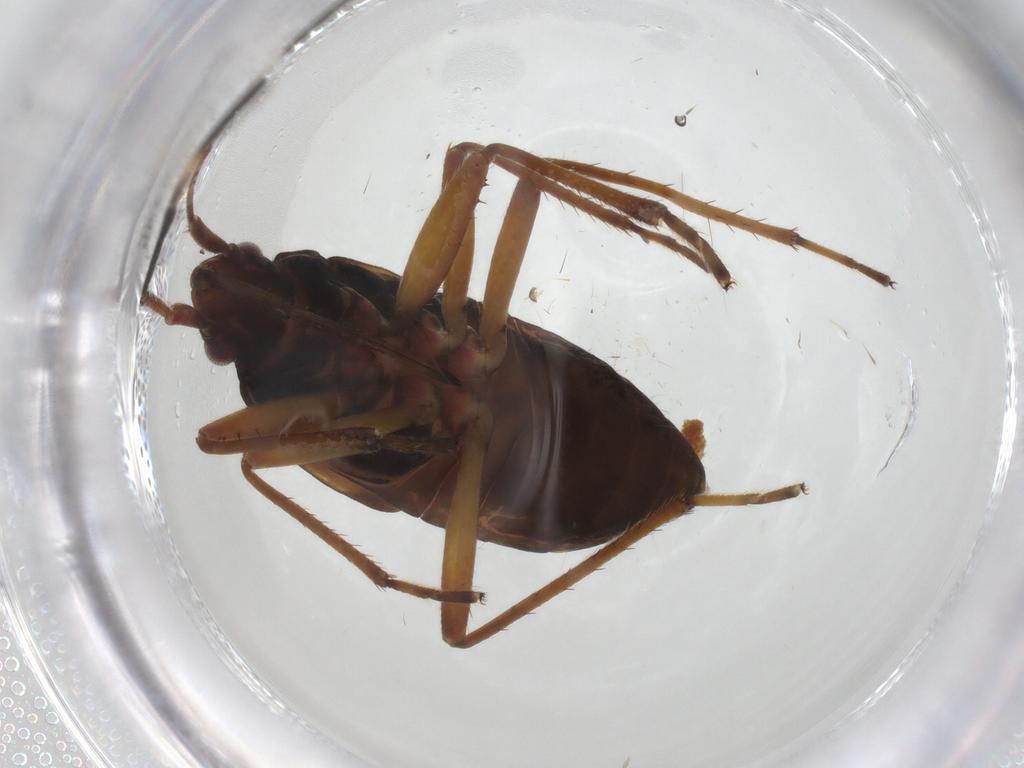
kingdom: Animalia
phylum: Arthropoda
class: Insecta
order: Hemiptera
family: Rhyparochromidae
